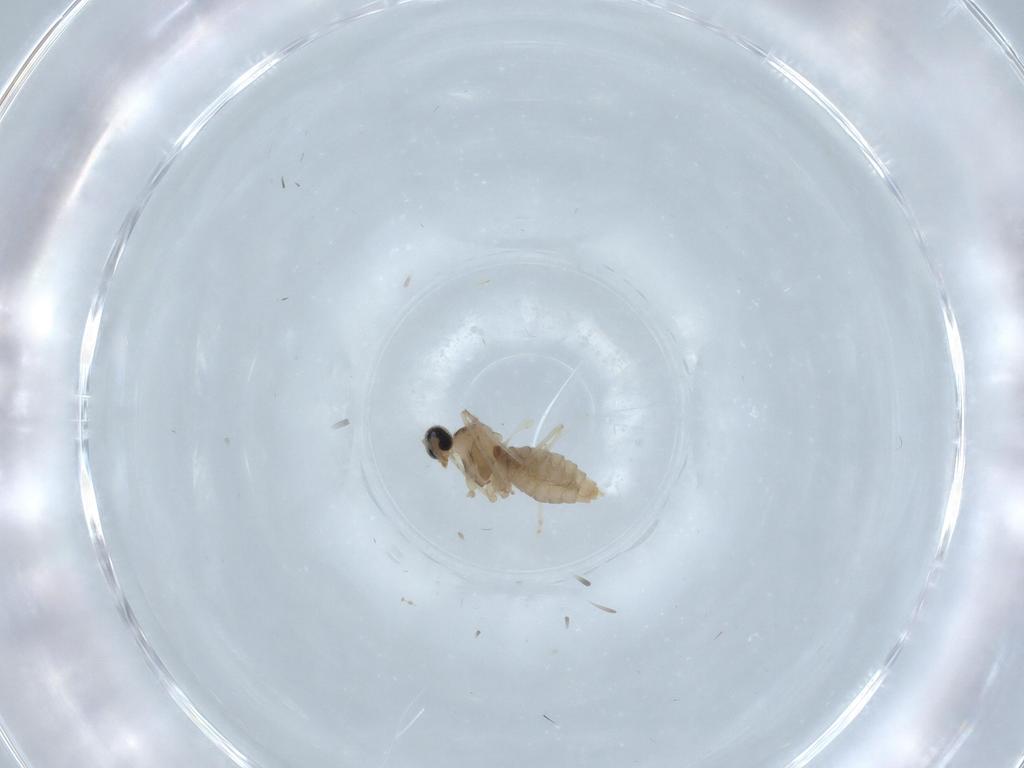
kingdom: Animalia
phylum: Arthropoda
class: Insecta
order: Diptera
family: Cecidomyiidae
